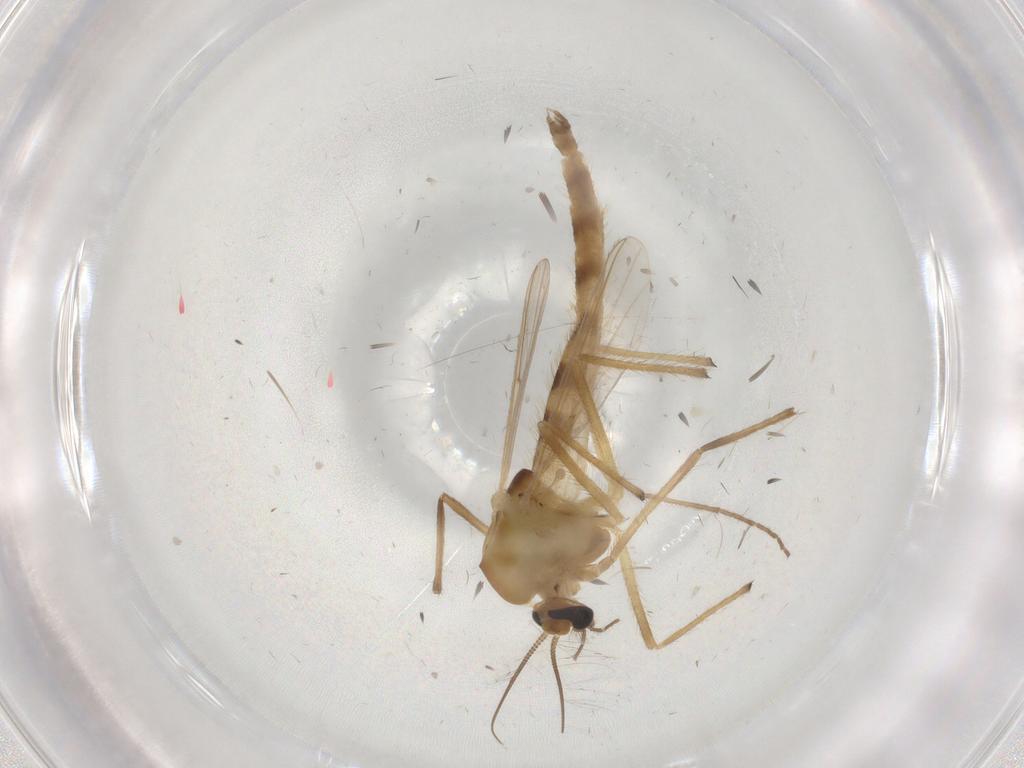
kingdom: Animalia
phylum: Arthropoda
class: Insecta
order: Diptera
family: Chironomidae
